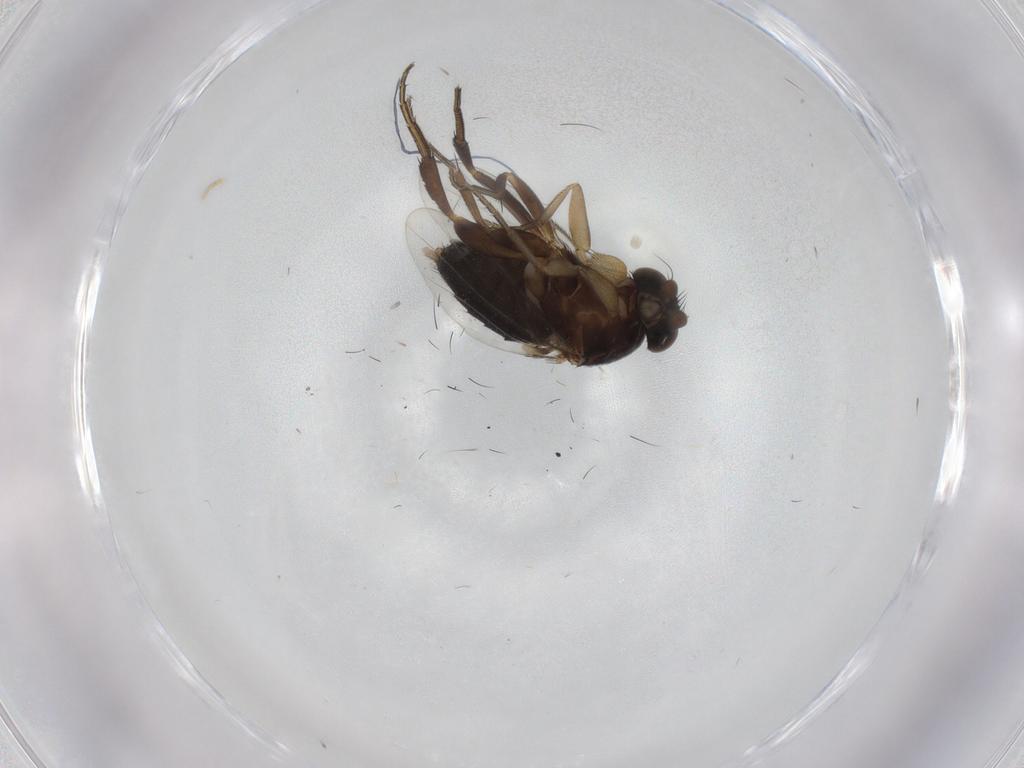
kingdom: Animalia
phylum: Arthropoda
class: Insecta
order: Diptera
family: Phoridae
